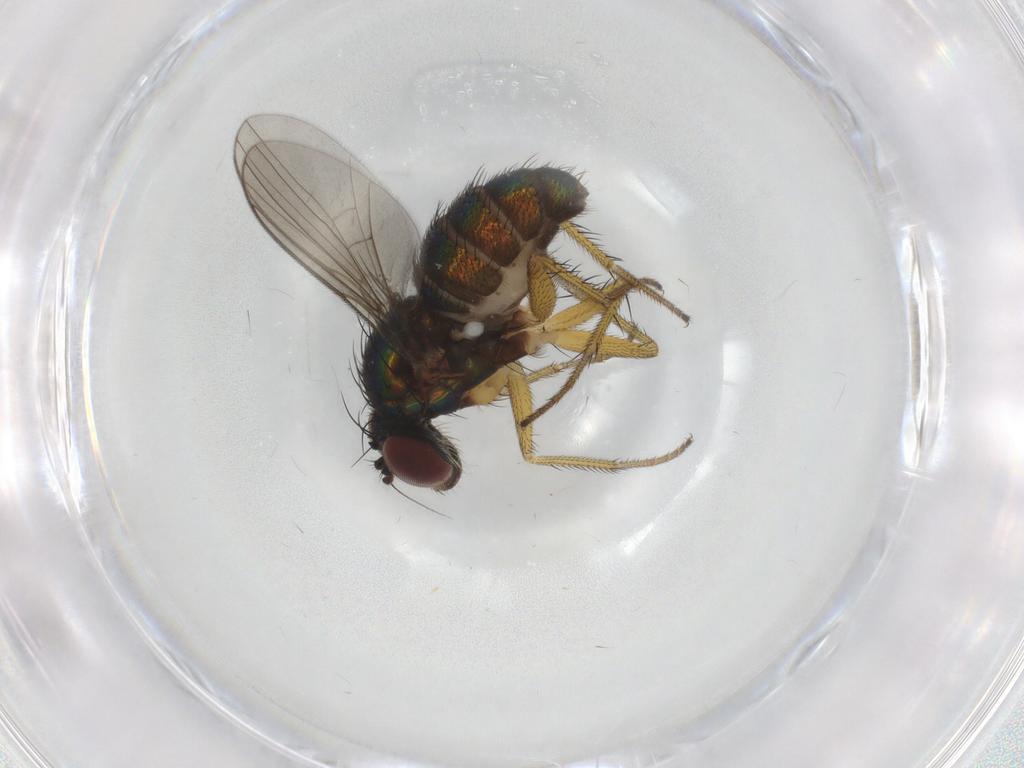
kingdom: Animalia
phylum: Arthropoda
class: Insecta
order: Diptera
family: Dolichopodidae
